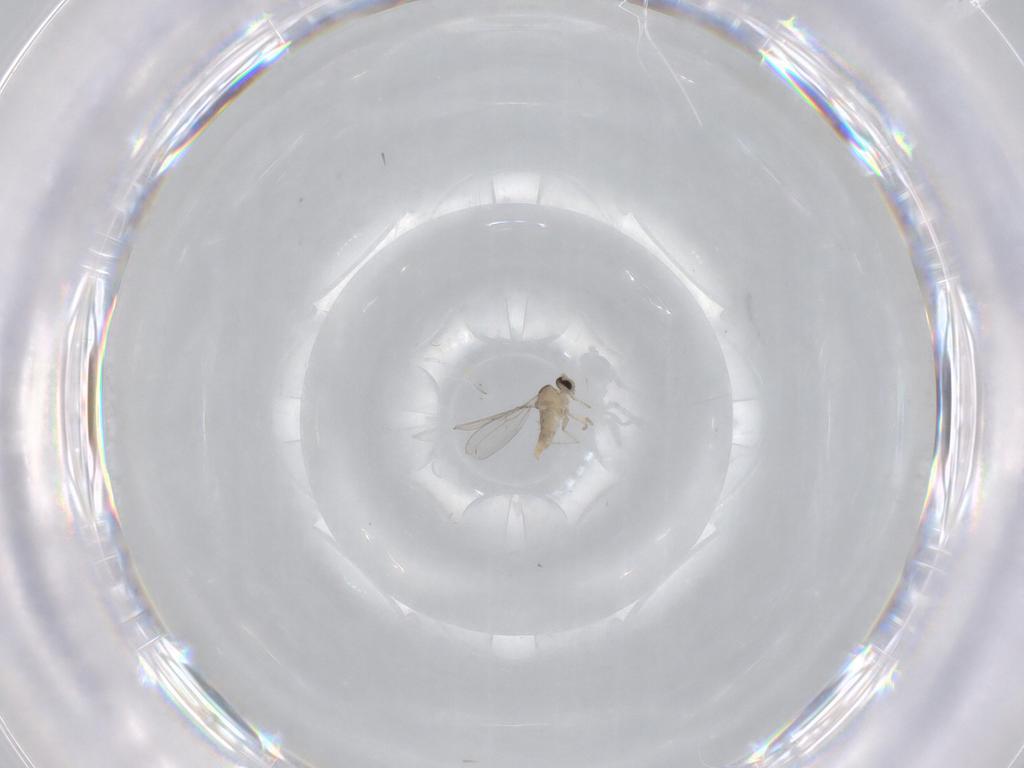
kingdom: Animalia
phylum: Arthropoda
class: Insecta
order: Diptera
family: Cecidomyiidae
